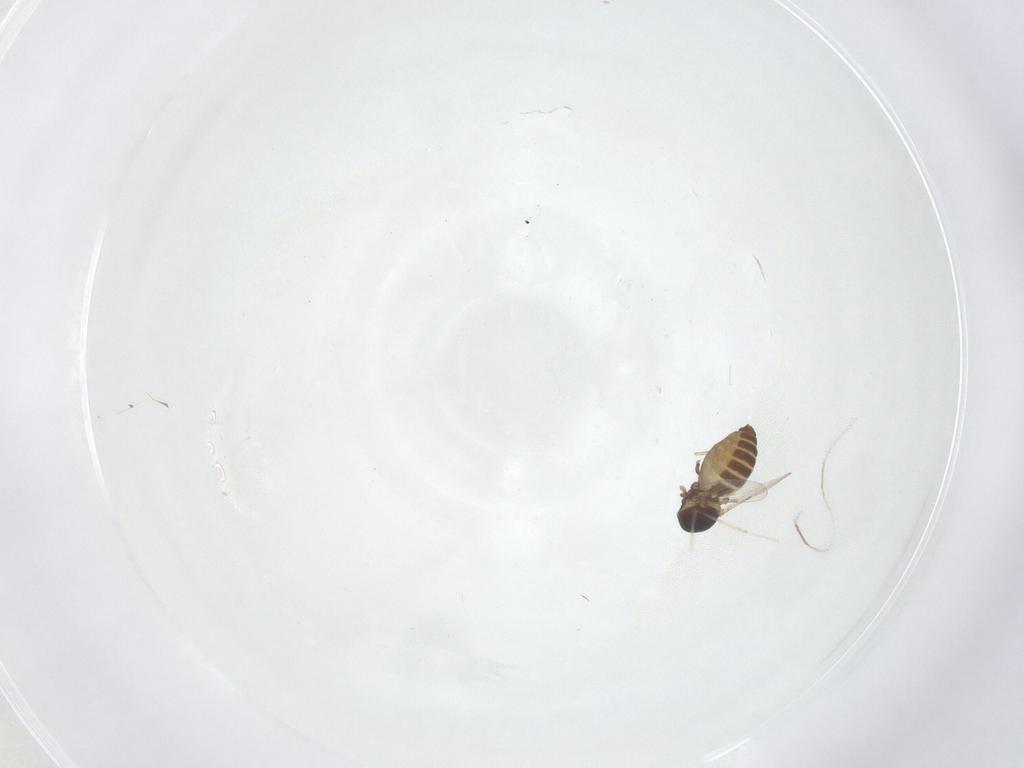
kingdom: Animalia
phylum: Arthropoda
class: Insecta
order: Diptera
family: Ceratopogonidae
